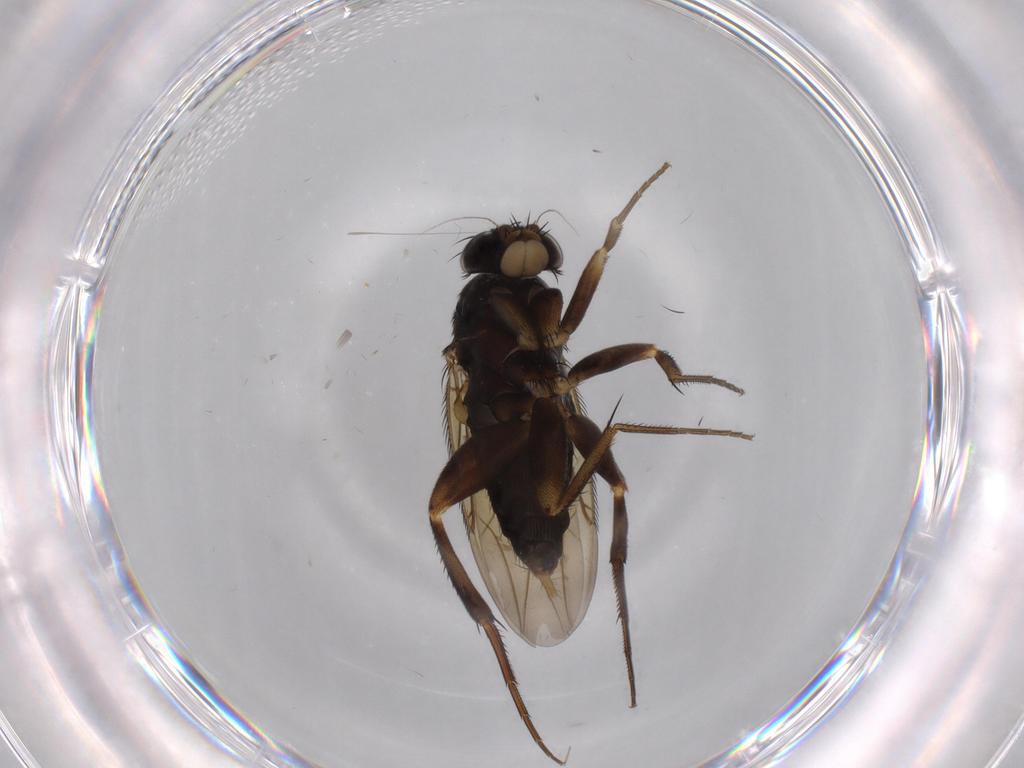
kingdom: Animalia
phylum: Arthropoda
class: Insecta
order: Diptera
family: Phoridae
